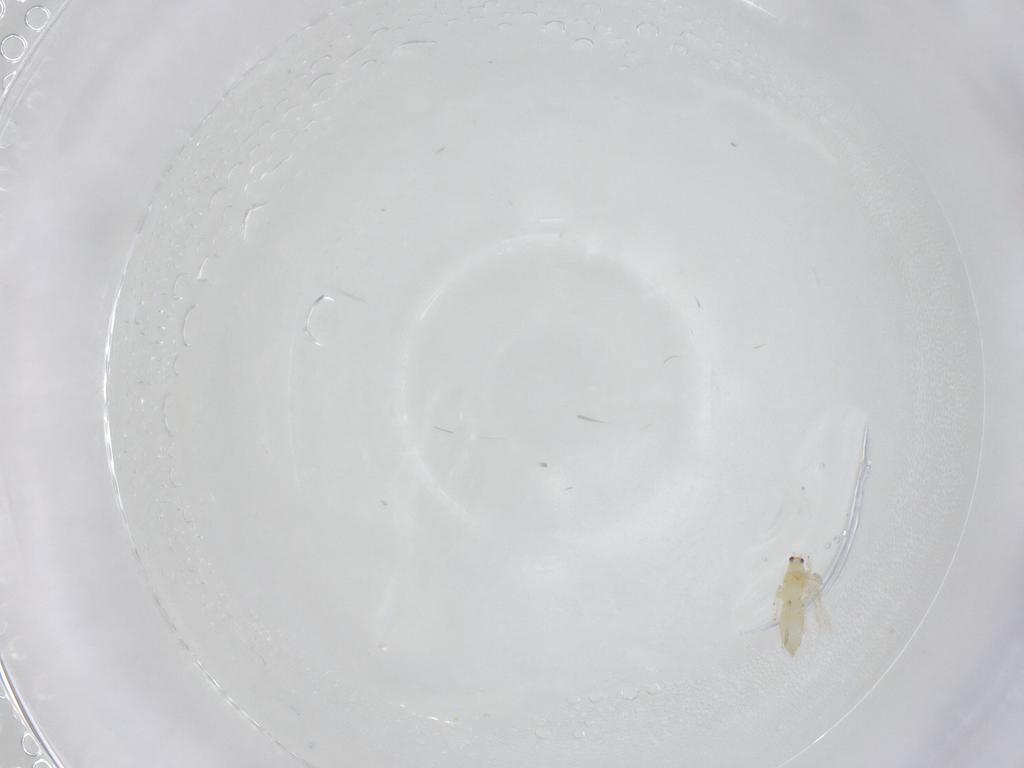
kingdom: Animalia
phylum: Arthropoda
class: Insecta
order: Thysanoptera
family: Thripidae
